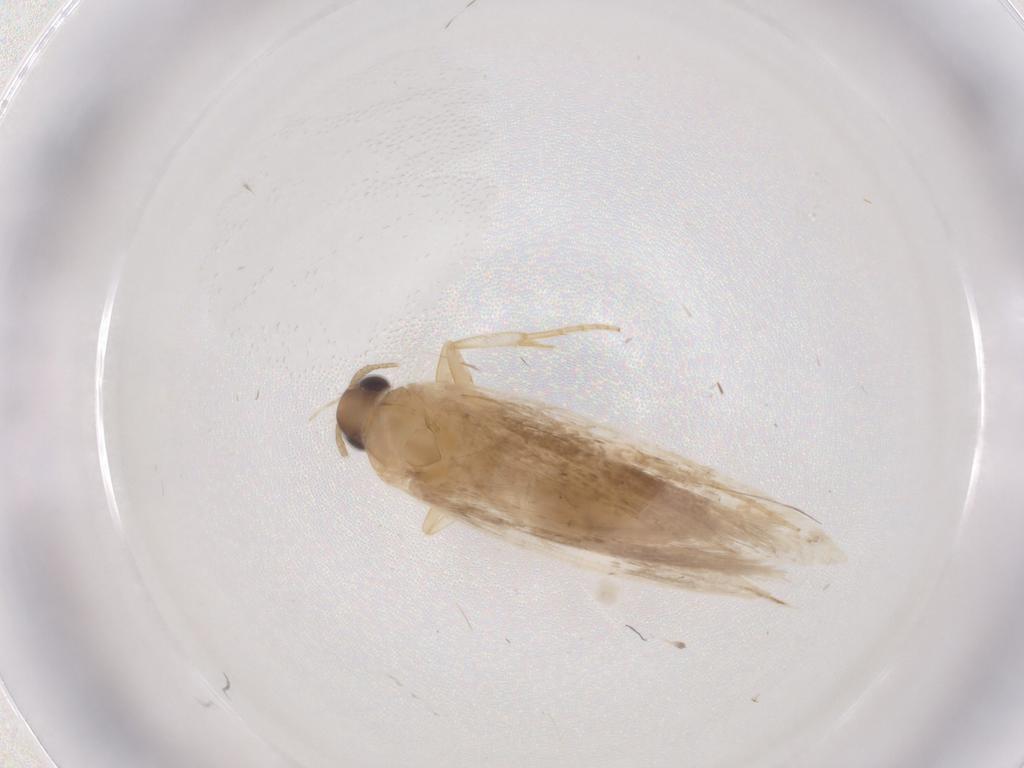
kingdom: Animalia
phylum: Arthropoda
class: Insecta
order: Lepidoptera
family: Gelechiidae
